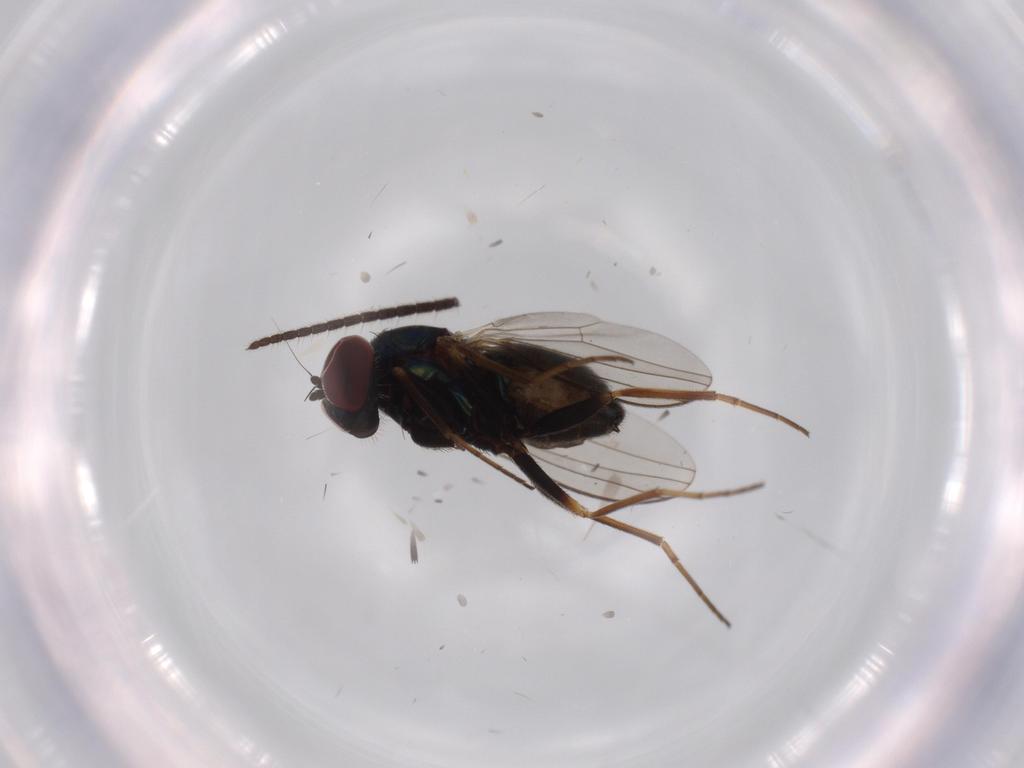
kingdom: Animalia
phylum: Arthropoda
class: Insecta
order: Diptera
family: Dolichopodidae
